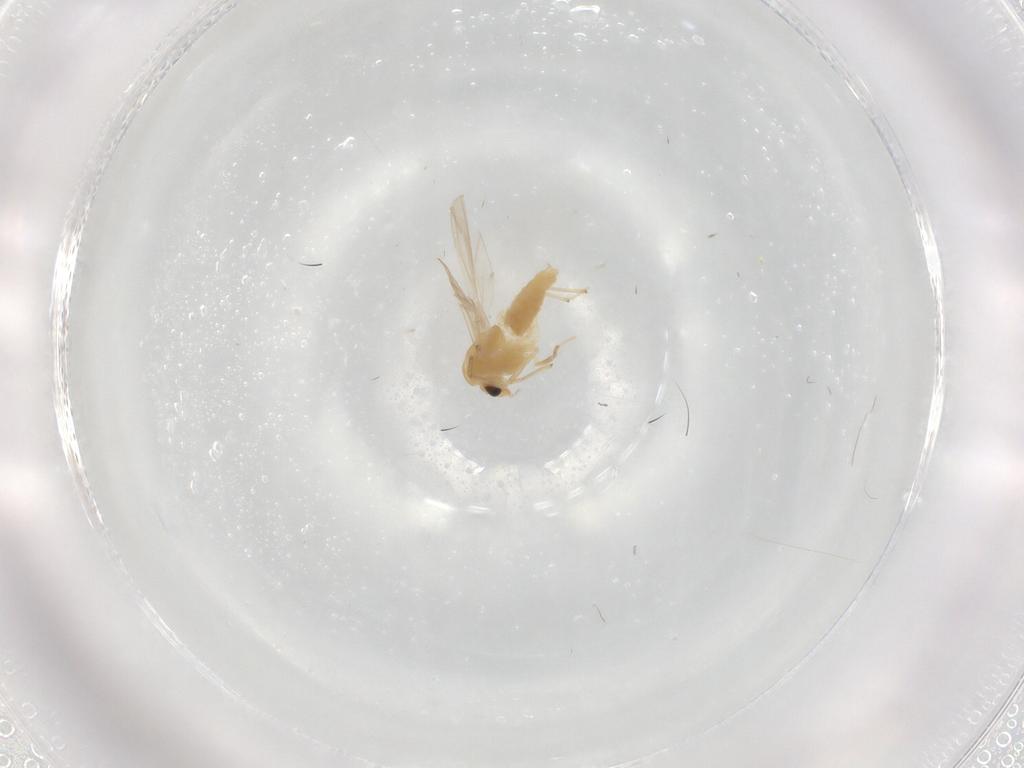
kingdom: Animalia
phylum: Arthropoda
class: Insecta
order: Diptera
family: Chironomidae
